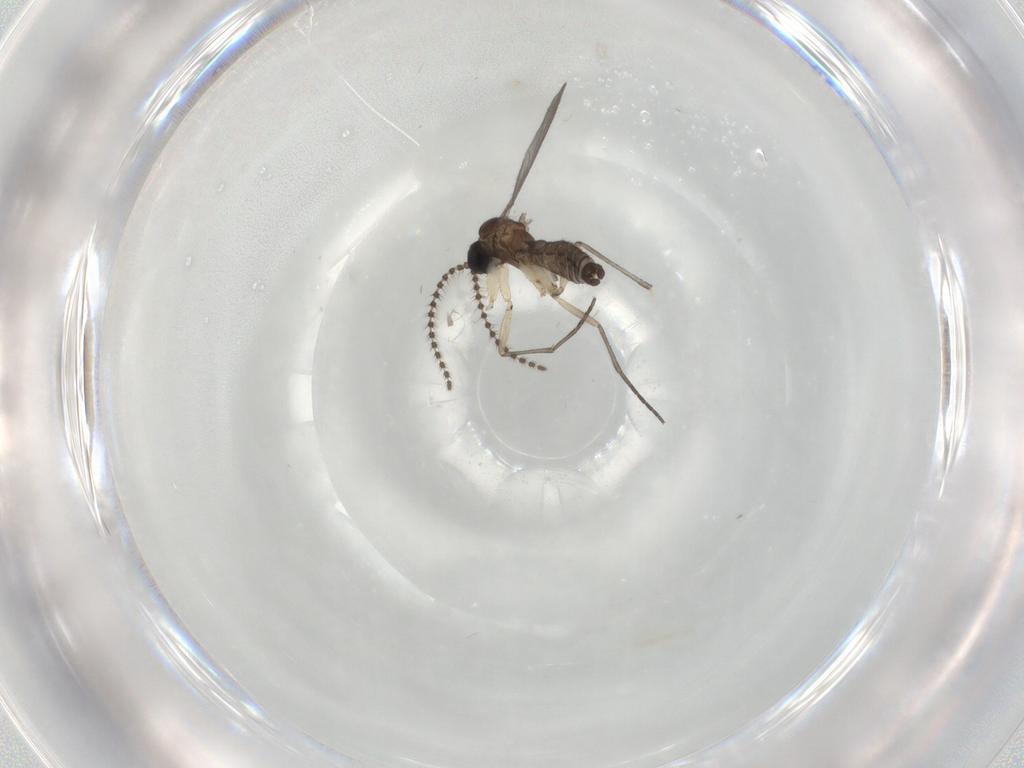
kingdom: Animalia
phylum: Arthropoda
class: Insecta
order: Diptera
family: Sciaridae
